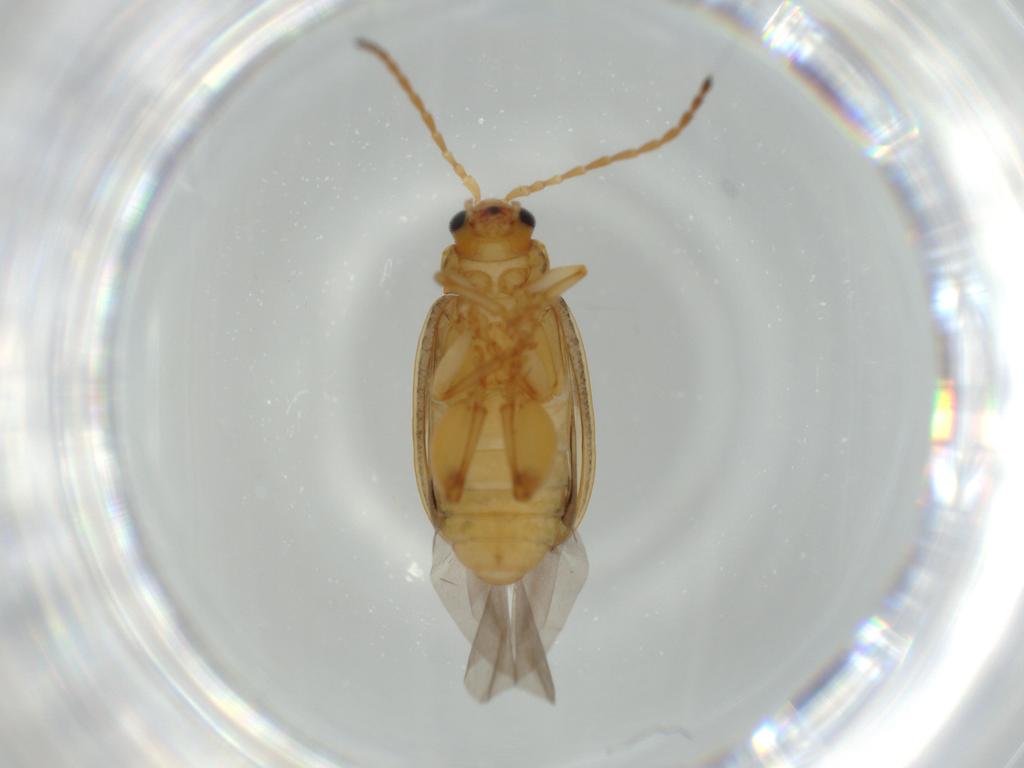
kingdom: Animalia
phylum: Arthropoda
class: Insecta
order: Coleoptera
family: Chrysomelidae
